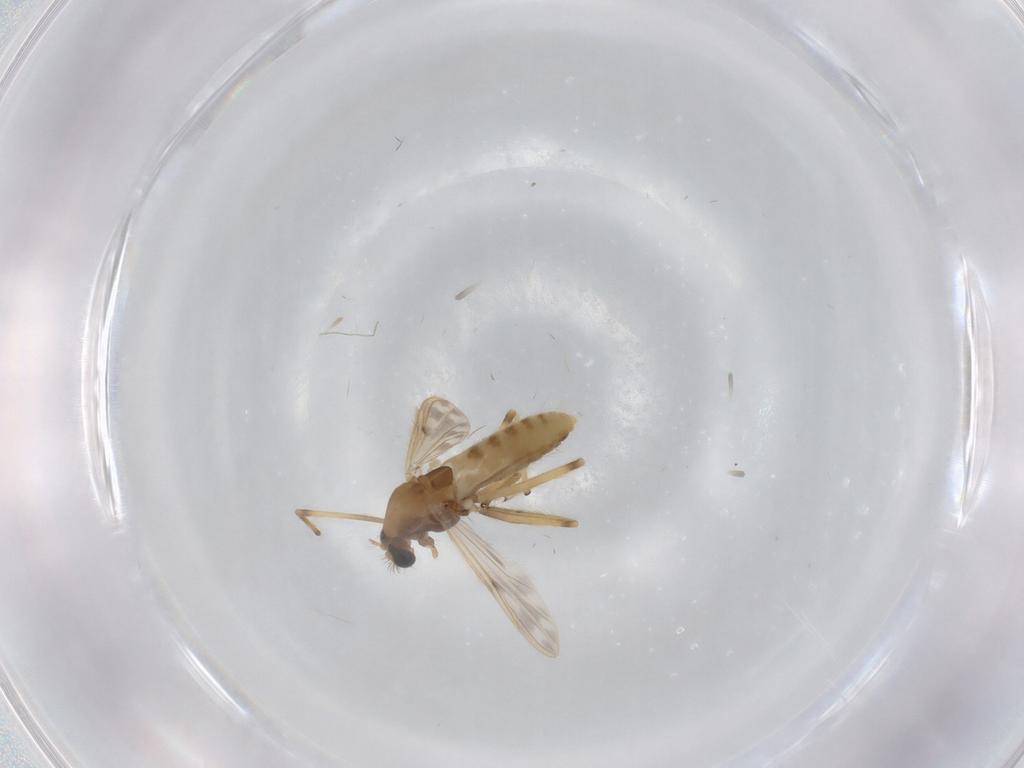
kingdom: Animalia
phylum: Arthropoda
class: Insecta
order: Diptera
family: Chironomidae
